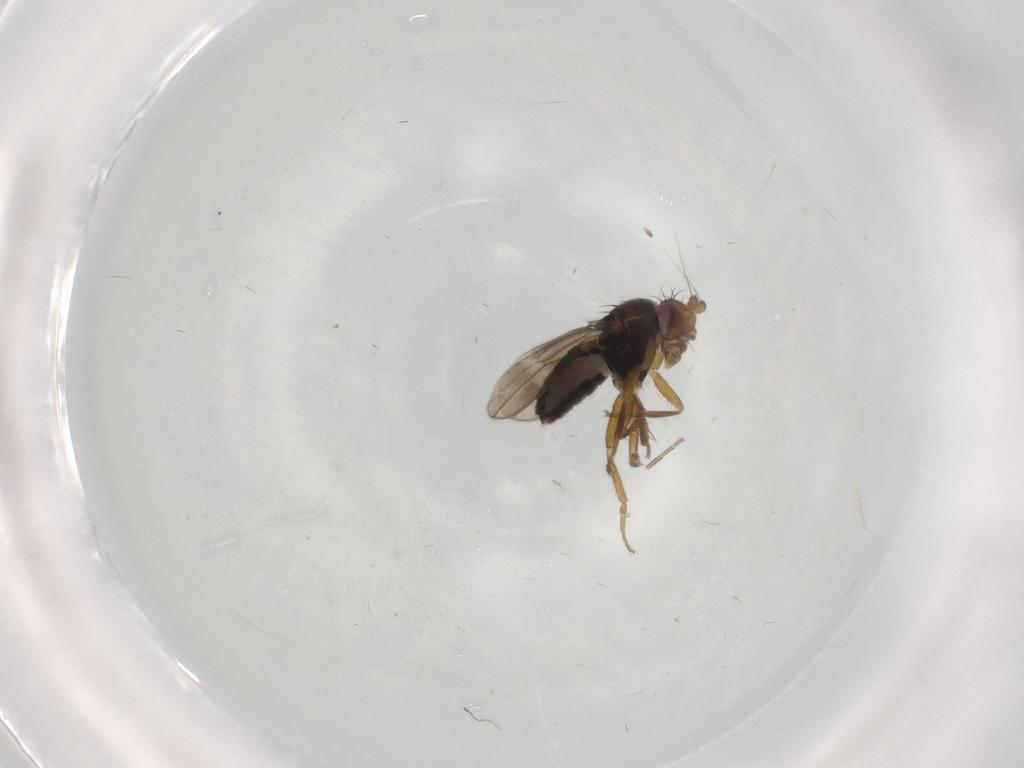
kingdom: Animalia
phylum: Arthropoda
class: Insecta
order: Diptera
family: Sphaeroceridae
